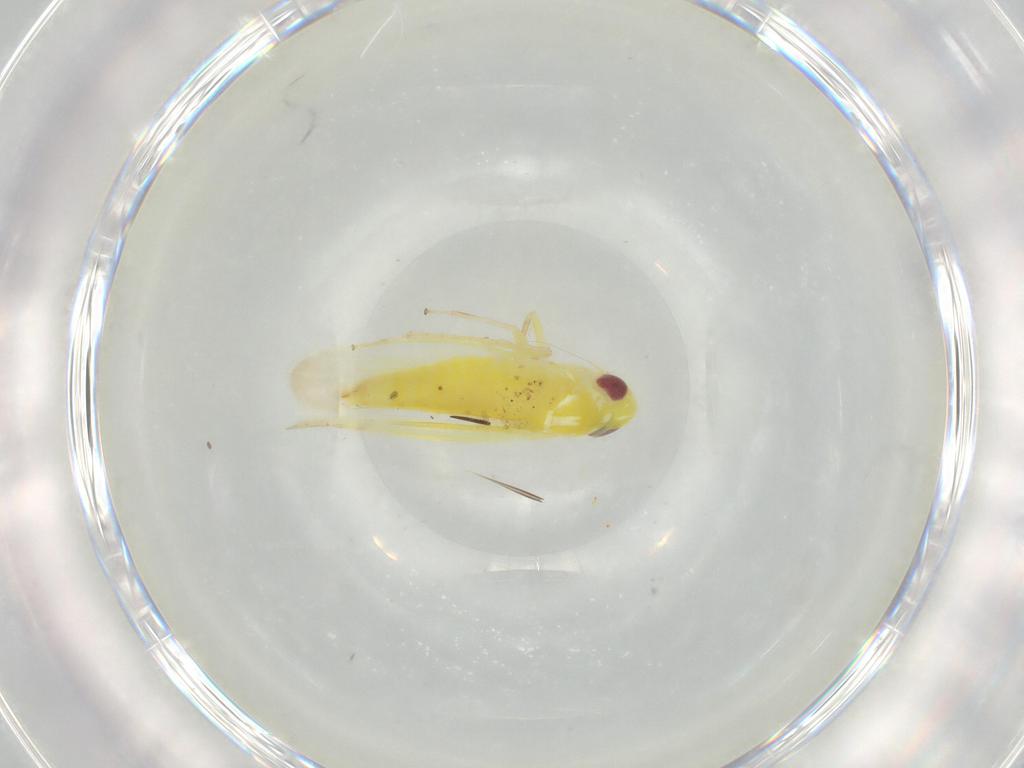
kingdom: Animalia
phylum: Arthropoda
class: Insecta
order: Hemiptera
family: Cicadellidae
